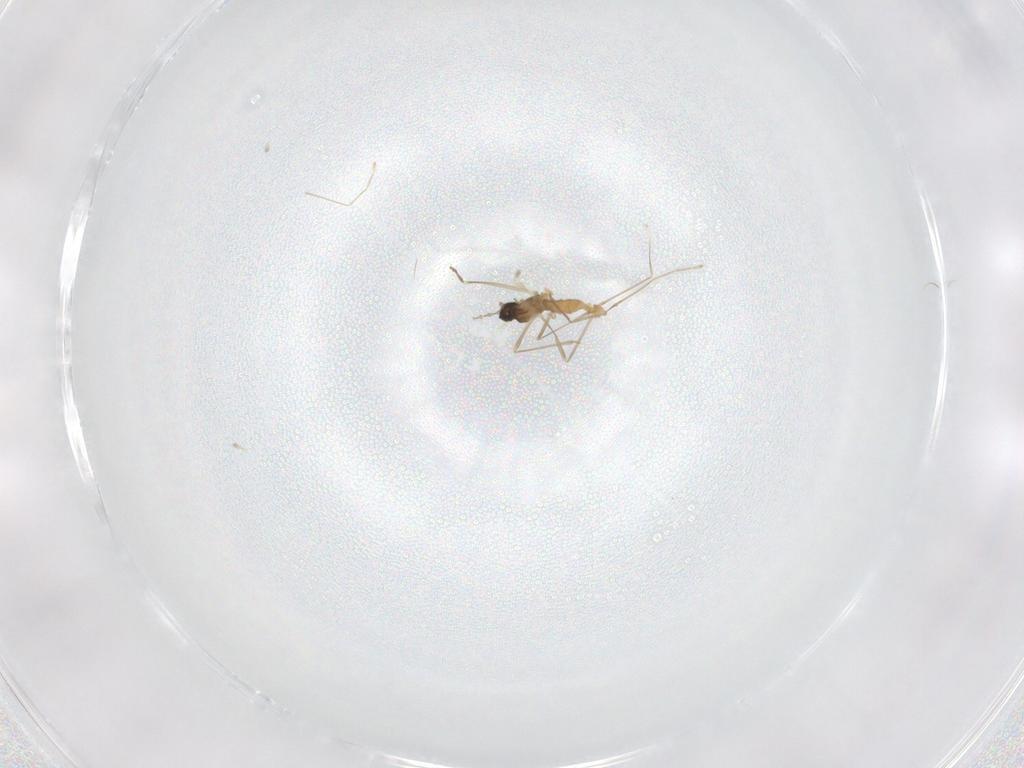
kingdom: Animalia
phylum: Arthropoda
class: Insecta
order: Diptera
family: Cecidomyiidae
